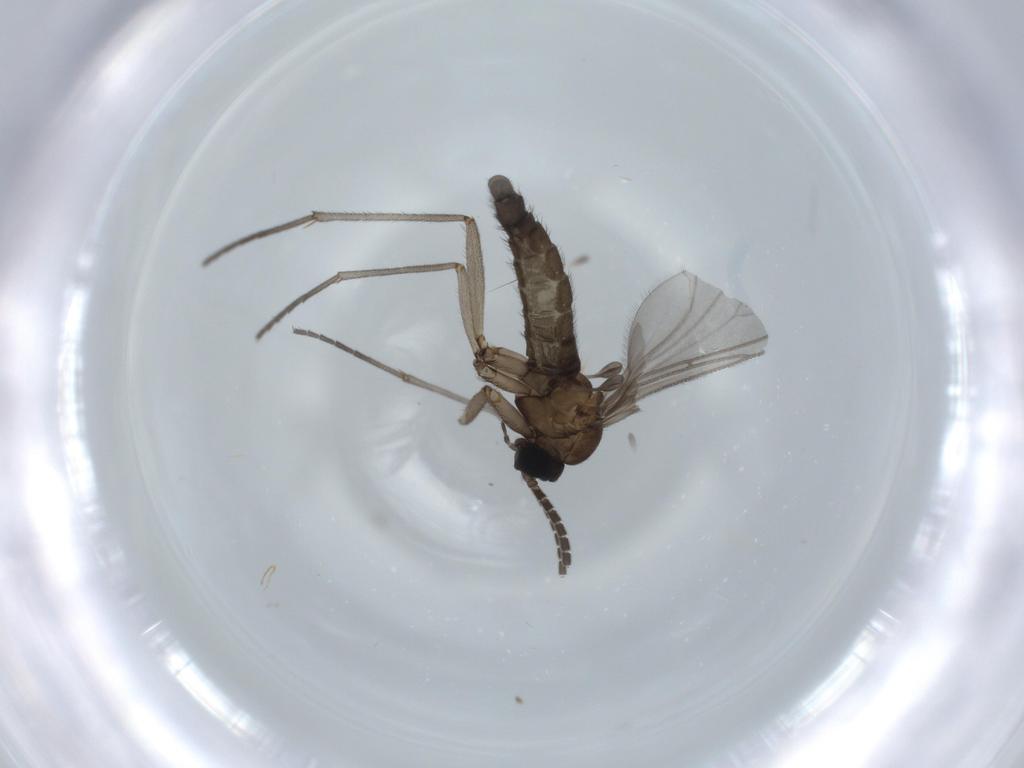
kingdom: Animalia
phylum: Arthropoda
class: Insecta
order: Diptera
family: Sciaridae
